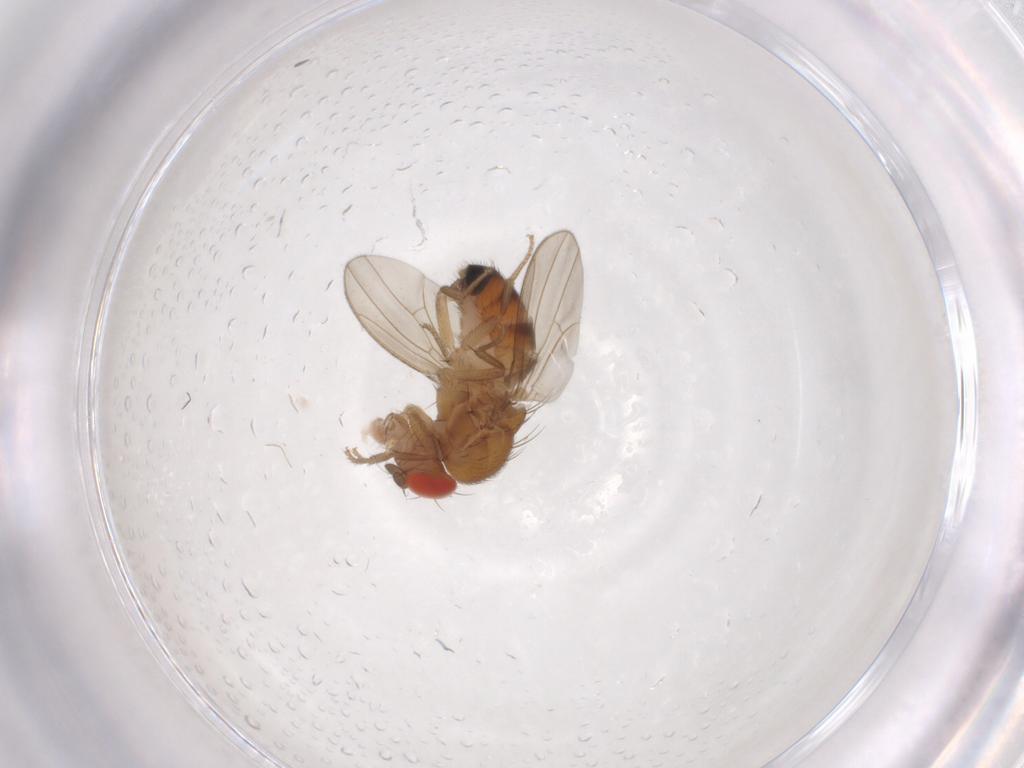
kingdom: Animalia
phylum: Arthropoda
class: Insecta
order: Diptera
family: Drosophilidae
